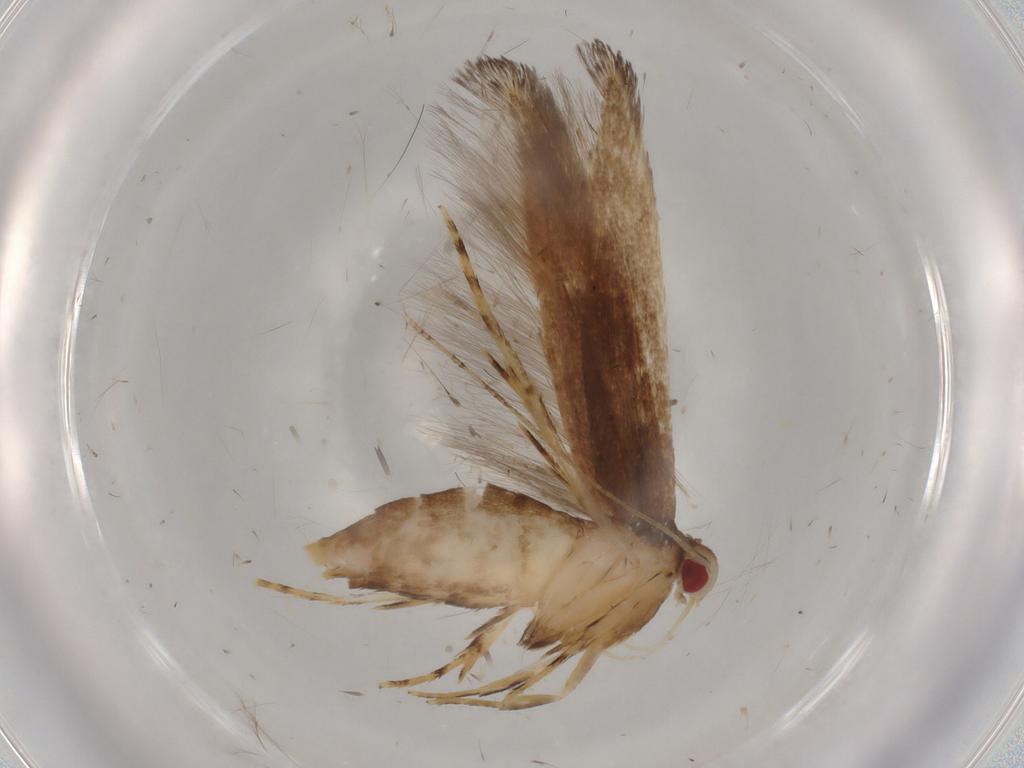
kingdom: Animalia
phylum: Arthropoda
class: Insecta
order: Lepidoptera
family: Cosmopterigidae
